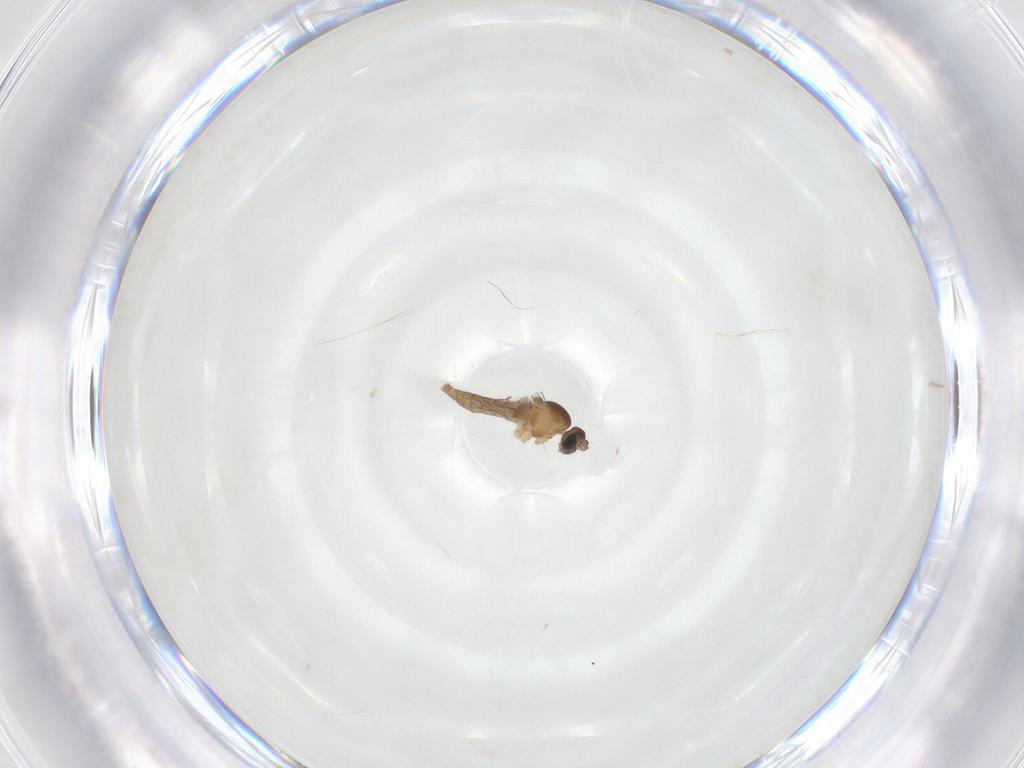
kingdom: Animalia
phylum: Arthropoda
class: Insecta
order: Diptera
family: Cecidomyiidae
